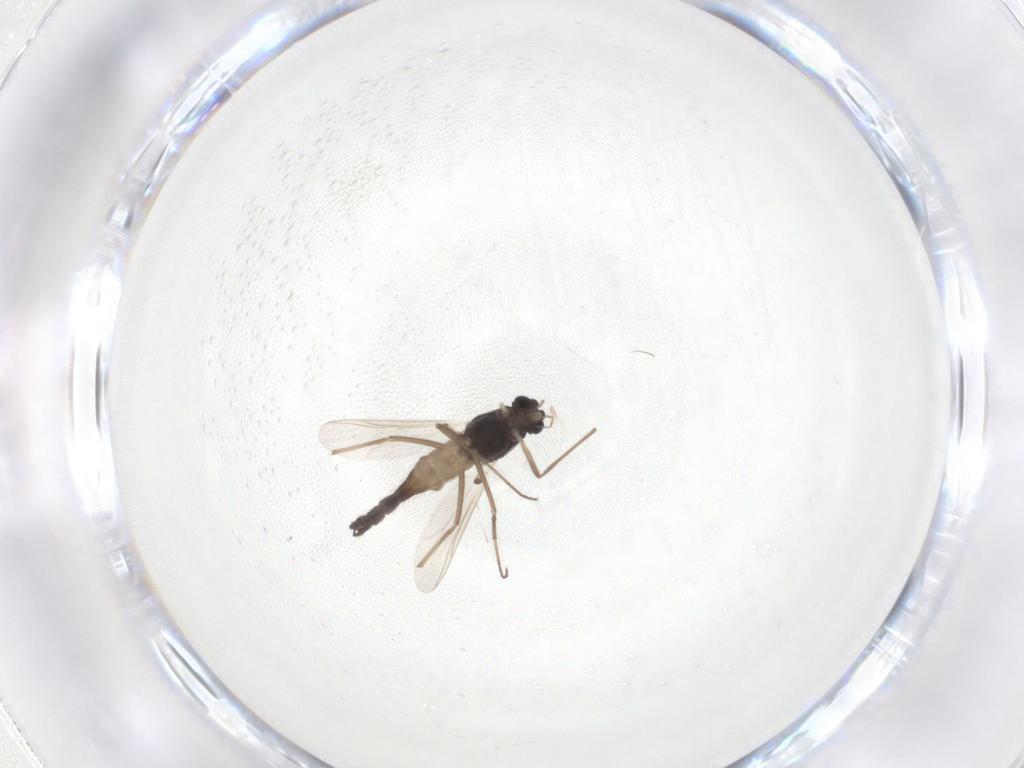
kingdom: Animalia
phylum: Arthropoda
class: Insecta
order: Diptera
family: Chironomidae
